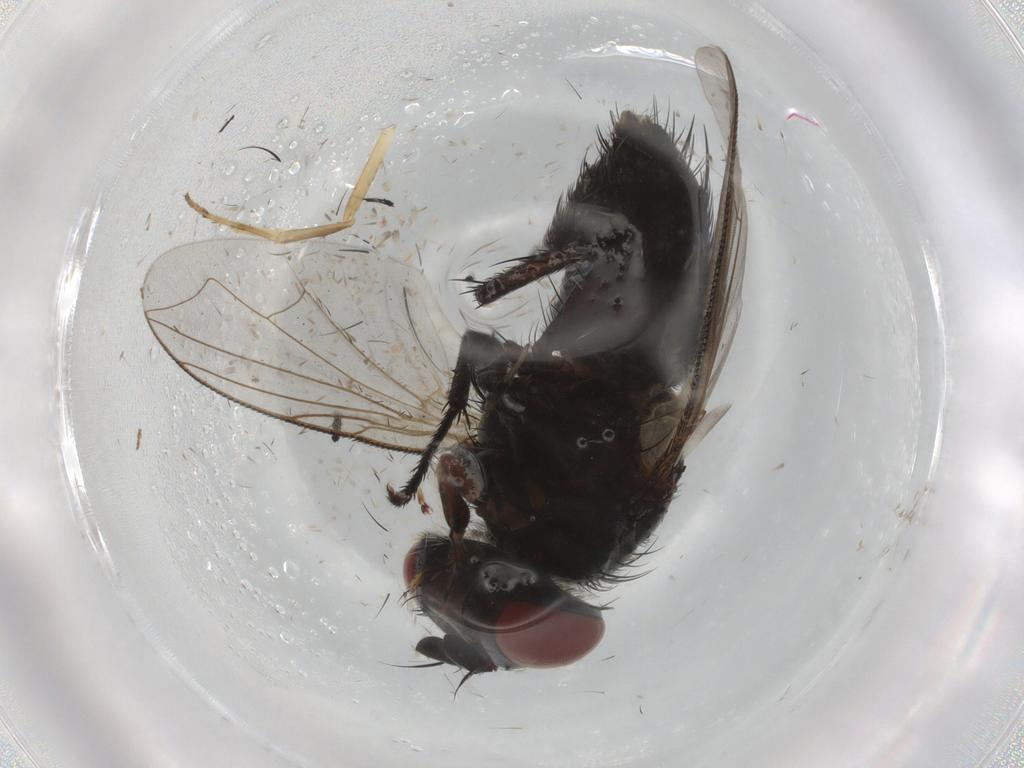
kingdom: Animalia
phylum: Arthropoda
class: Insecta
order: Diptera
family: Tachinidae
